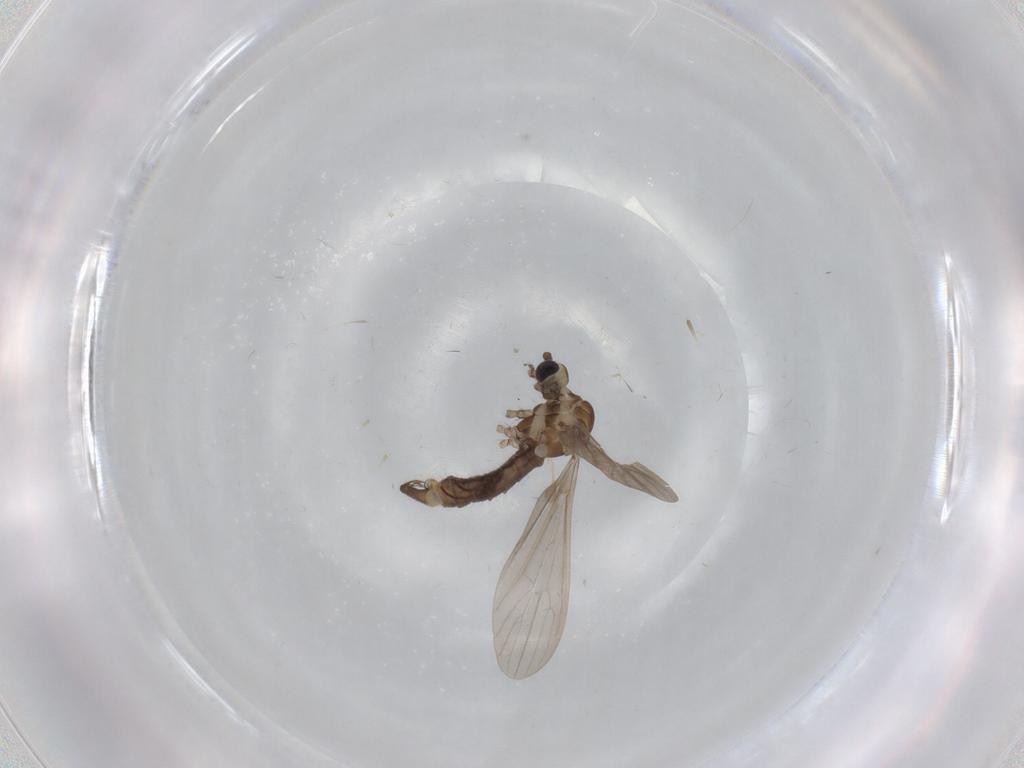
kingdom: Animalia
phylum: Arthropoda
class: Insecta
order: Diptera
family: Limoniidae
